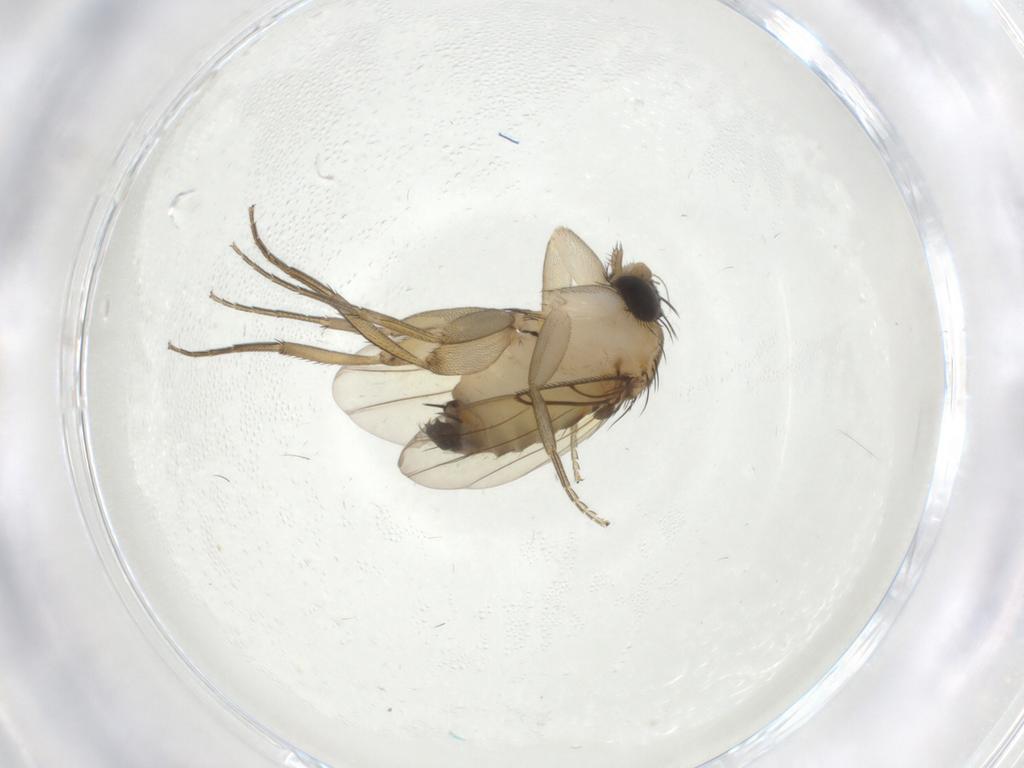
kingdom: Animalia
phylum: Arthropoda
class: Insecta
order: Diptera
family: Phoridae
